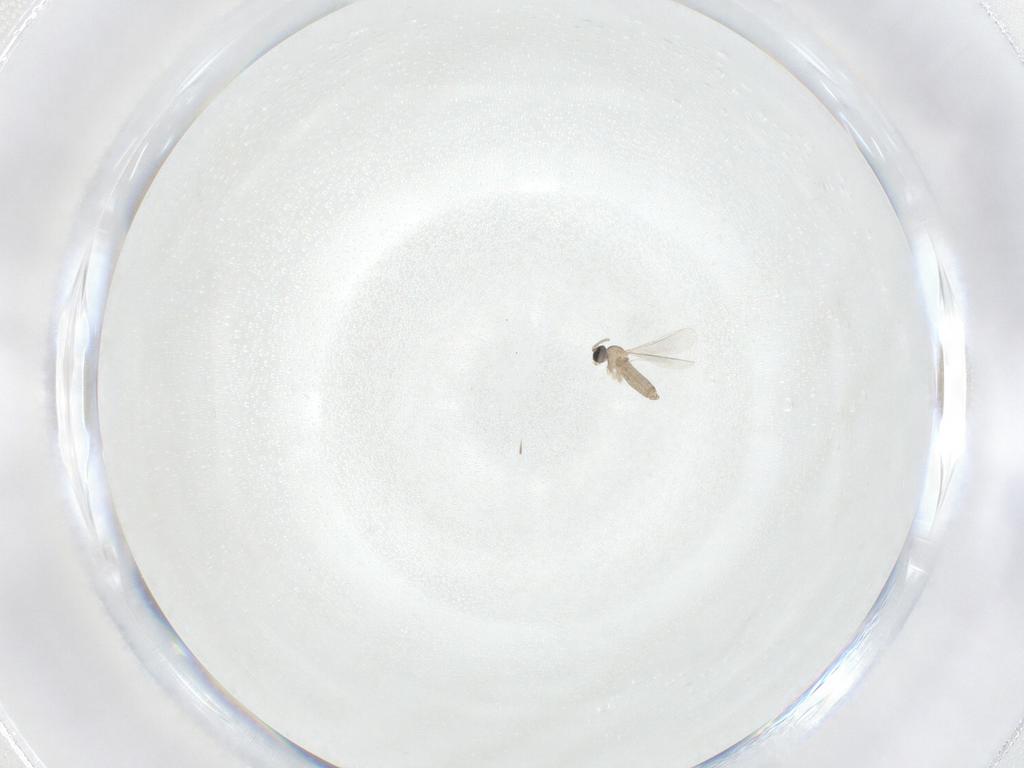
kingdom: Animalia
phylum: Arthropoda
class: Insecta
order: Diptera
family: Cecidomyiidae
